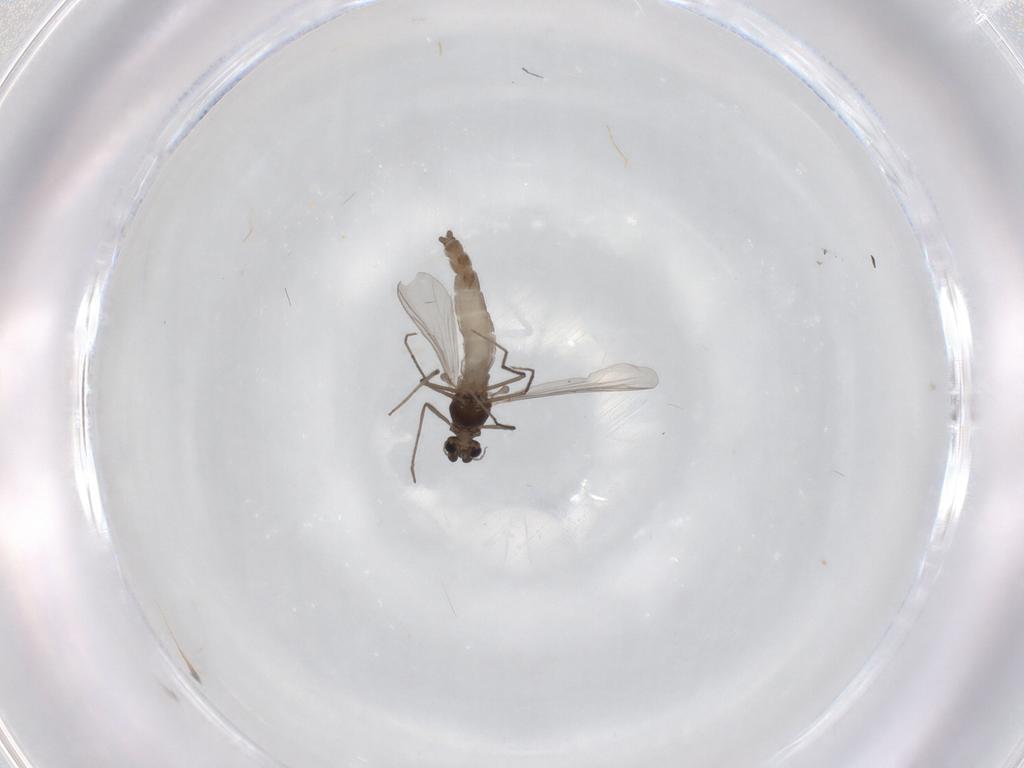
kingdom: Animalia
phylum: Arthropoda
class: Insecta
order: Diptera
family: Chironomidae
